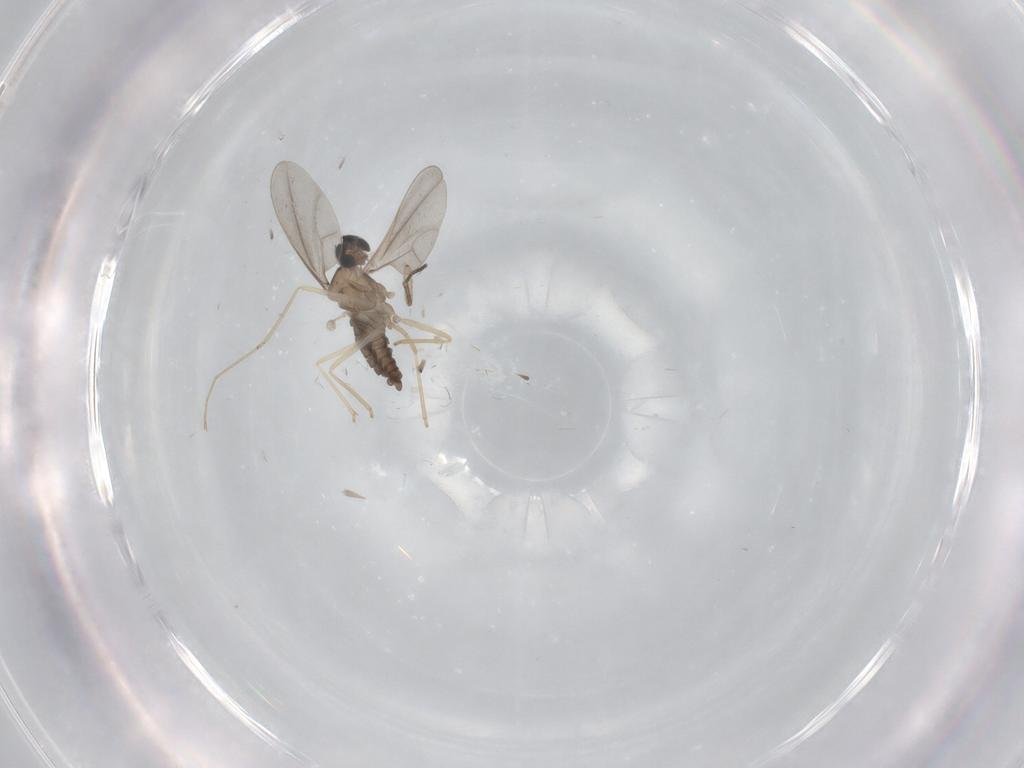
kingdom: Animalia
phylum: Arthropoda
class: Insecta
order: Diptera
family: Cecidomyiidae
